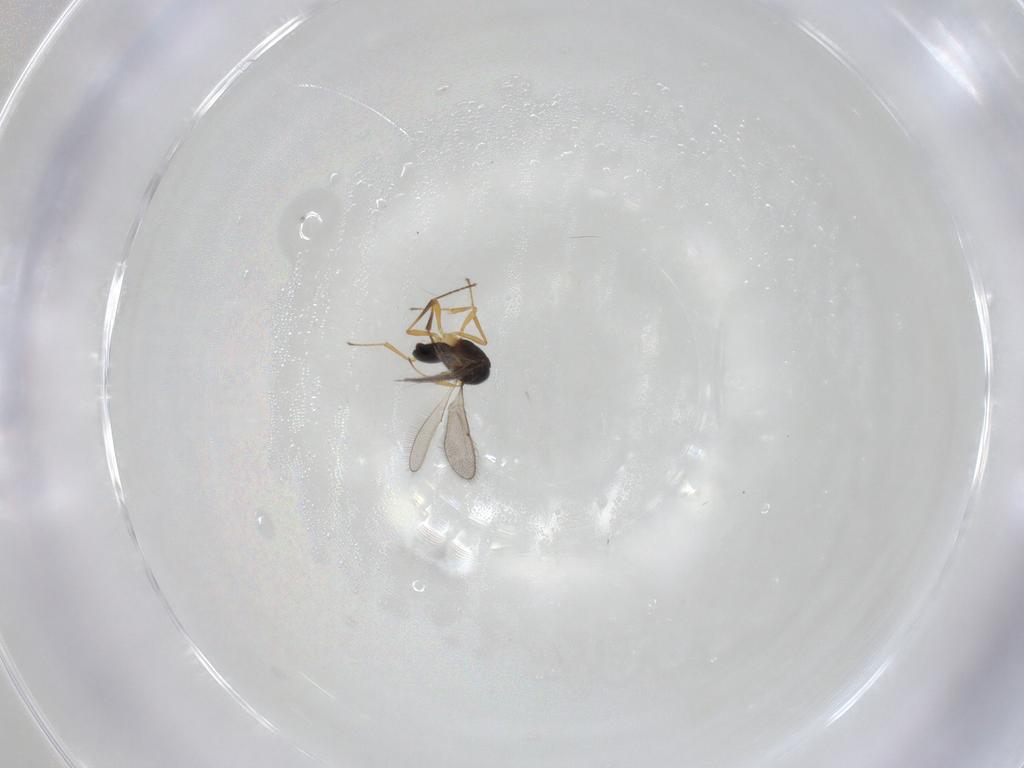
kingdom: Animalia
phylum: Arthropoda
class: Insecta
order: Hymenoptera
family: Scelionidae
